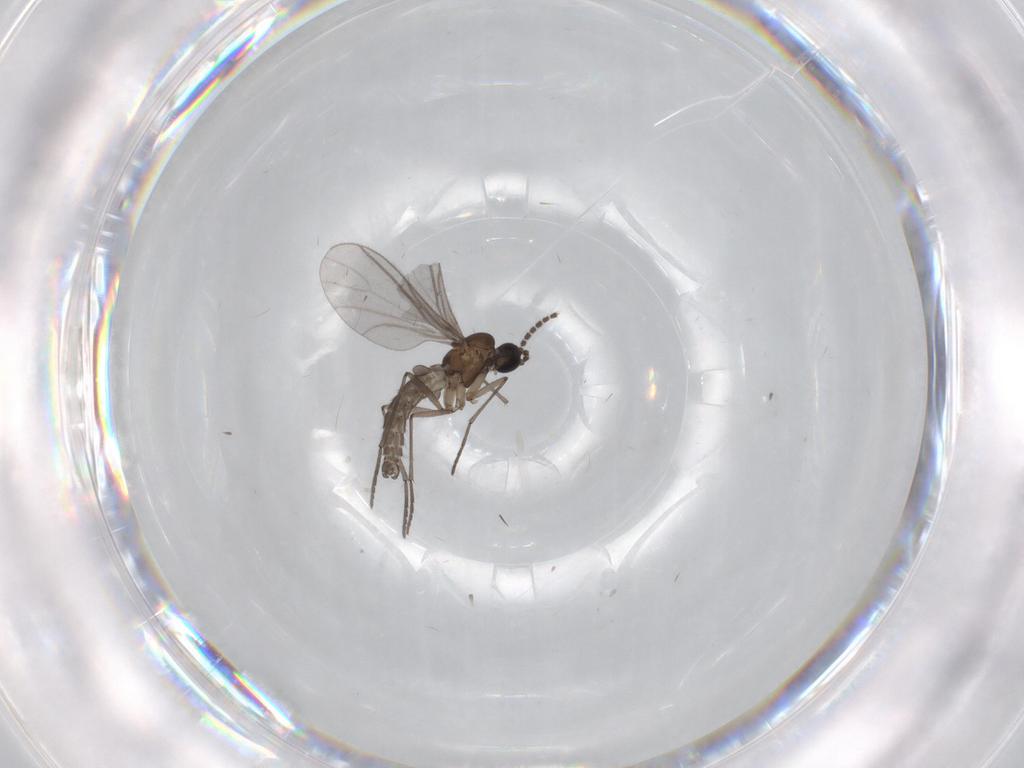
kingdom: Animalia
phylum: Arthropoda
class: Insecta
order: Diptera
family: Sciaridae
